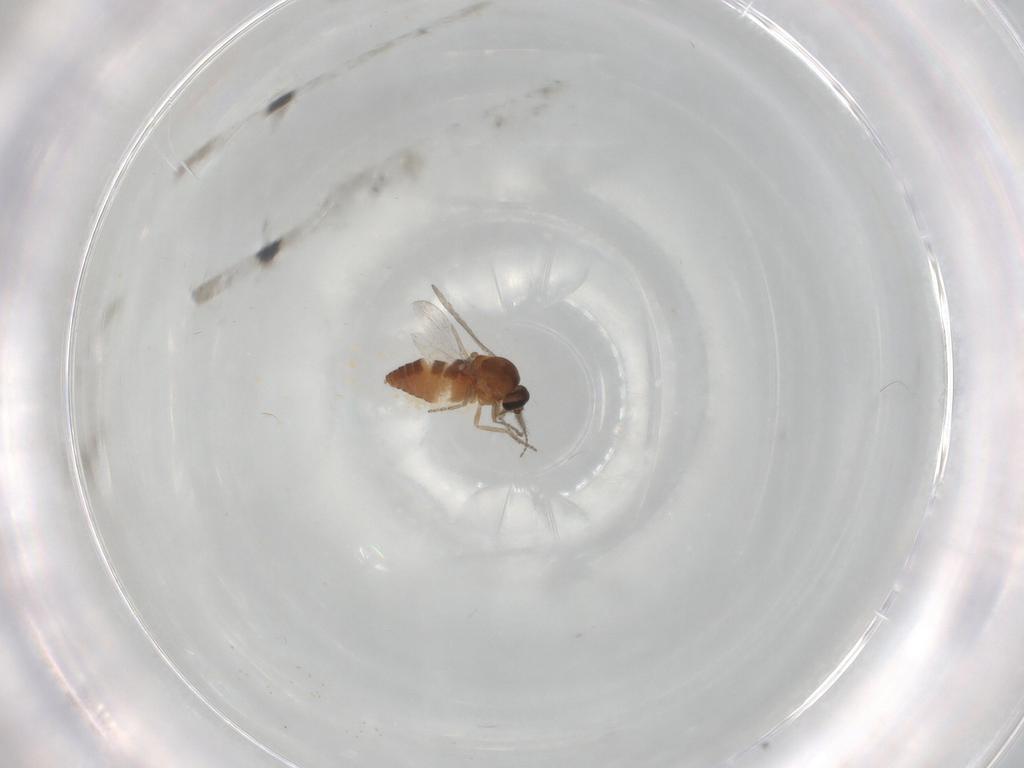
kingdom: Animalia
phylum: Arthropoda
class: Insecta
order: Diptera
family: Ceratopogonidae
